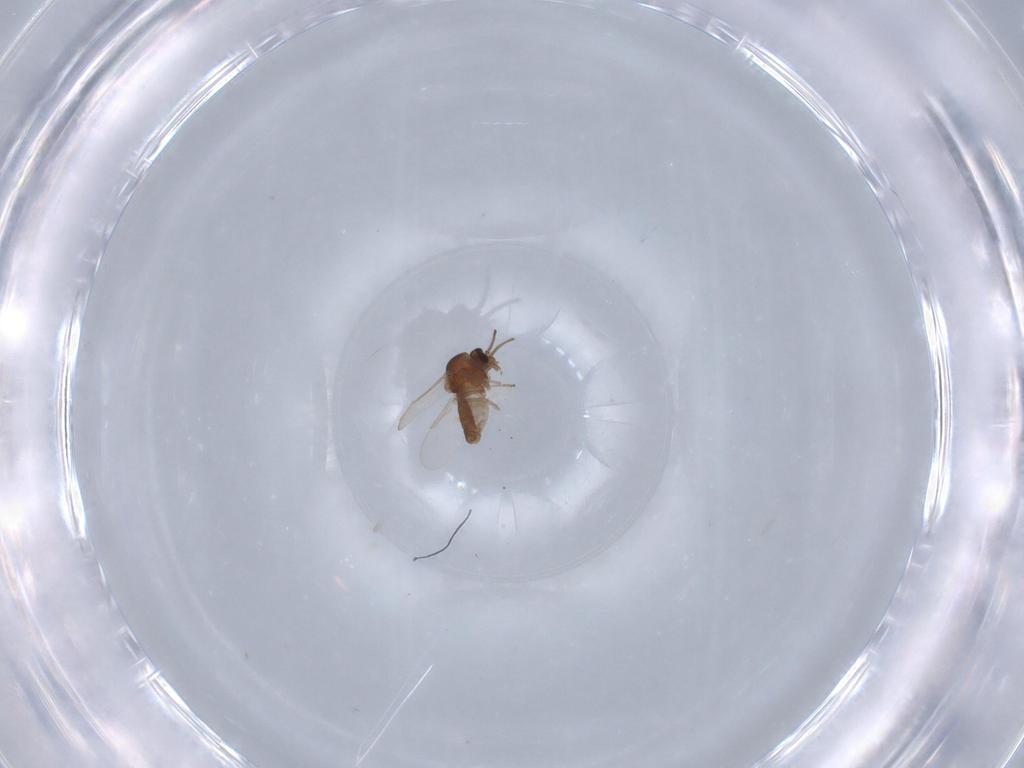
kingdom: Animalia
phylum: Arthropoda
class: Insecta
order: Diptera
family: Ceratopogonidae
